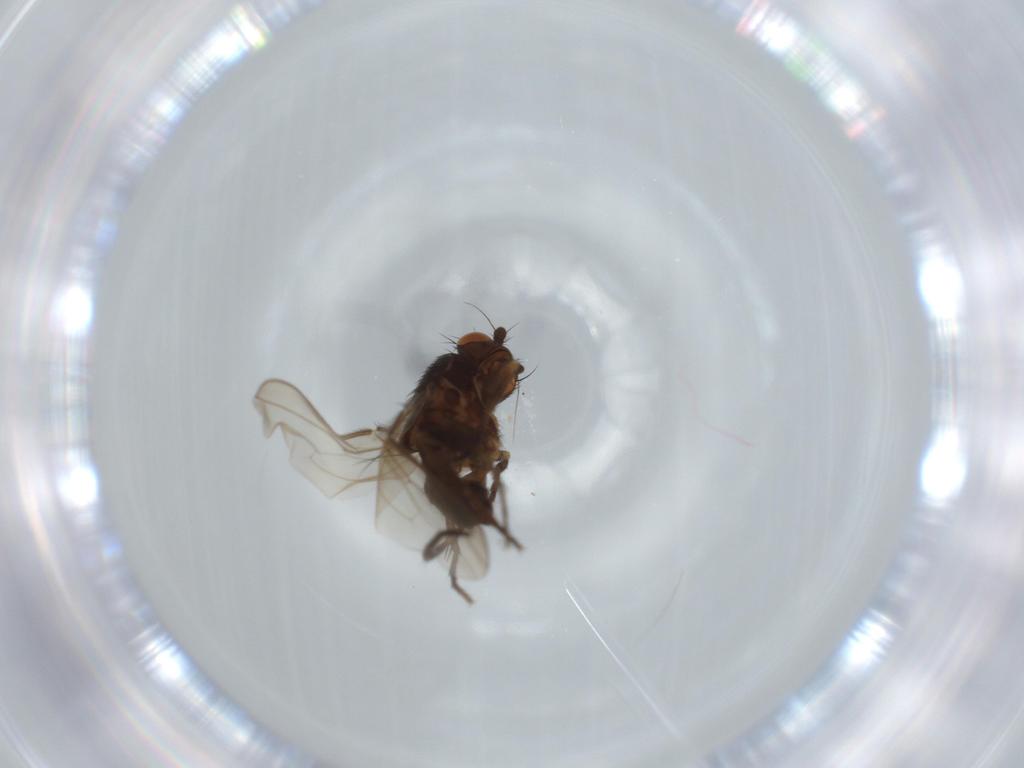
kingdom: Animalia
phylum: Arthropoda
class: Insecta
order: Diptera
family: Sphaeroceridae
